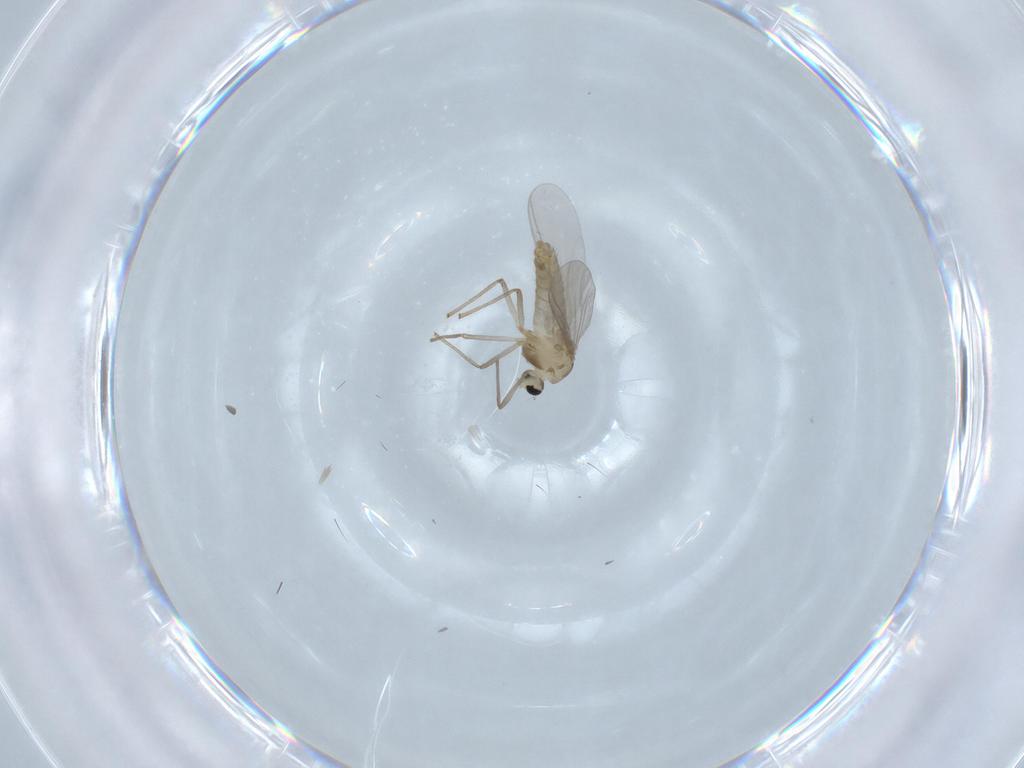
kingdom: Animalia
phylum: Arthropoda
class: Insecta
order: Diptera
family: Chironomidae
